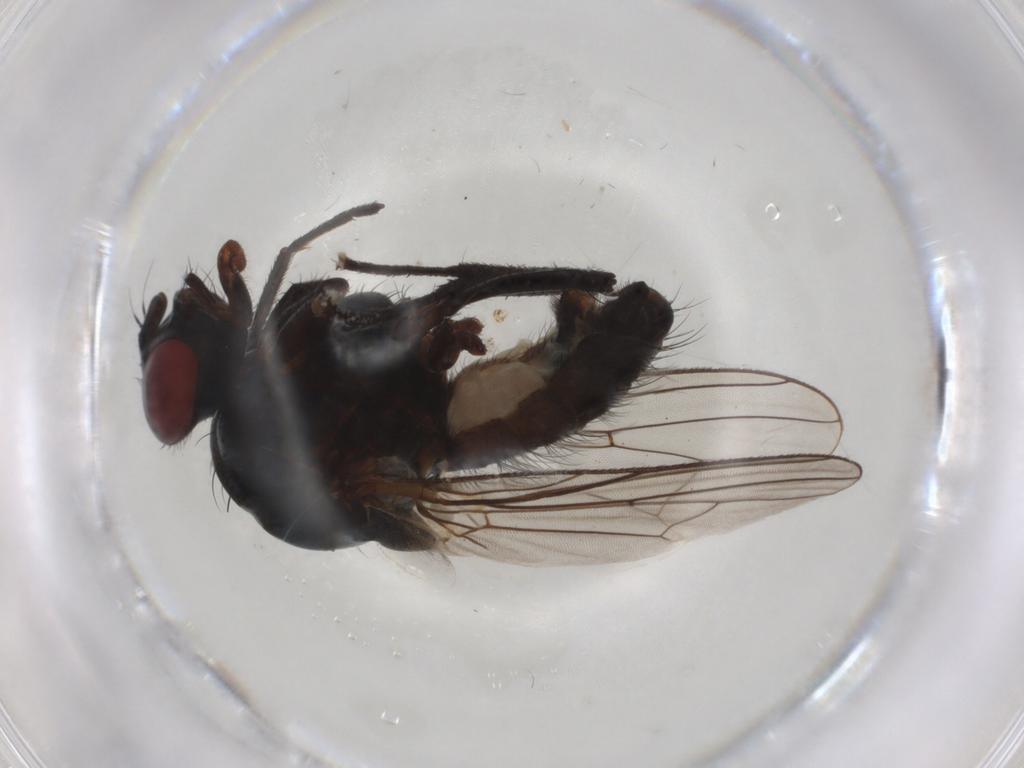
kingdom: Animalia
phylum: Arthropoda
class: Insecta
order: Diptera
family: Anthomyiidae
